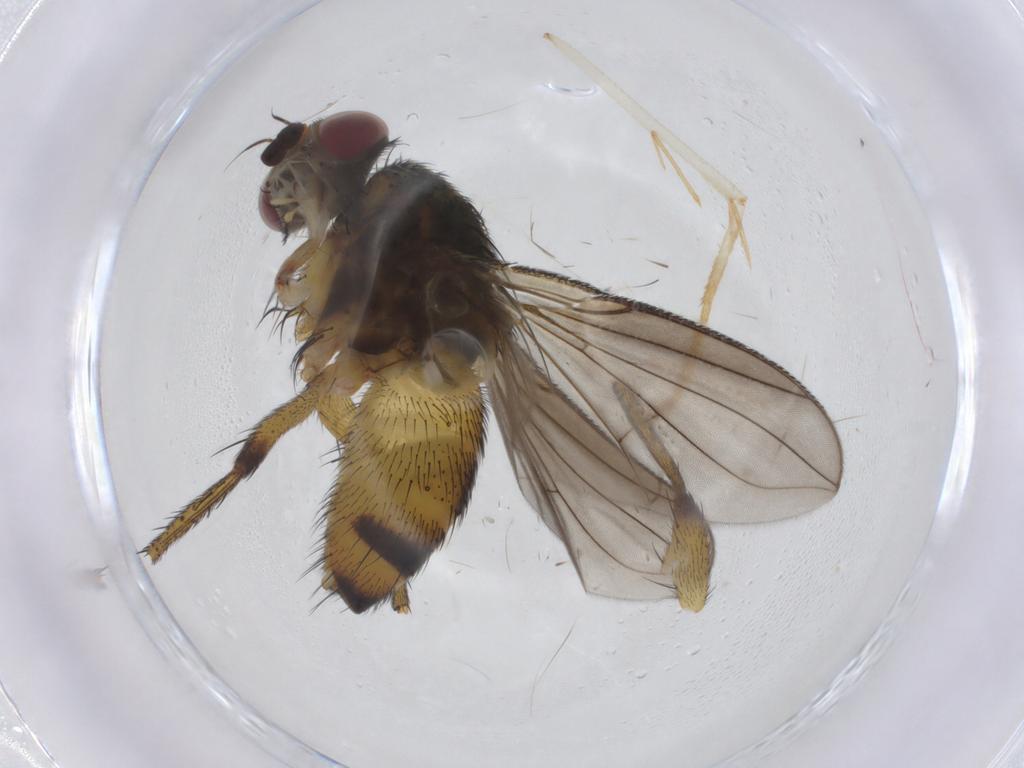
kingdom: Animalia
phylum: Arthropoda
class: Insecta
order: Diptera
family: Tachinidae
